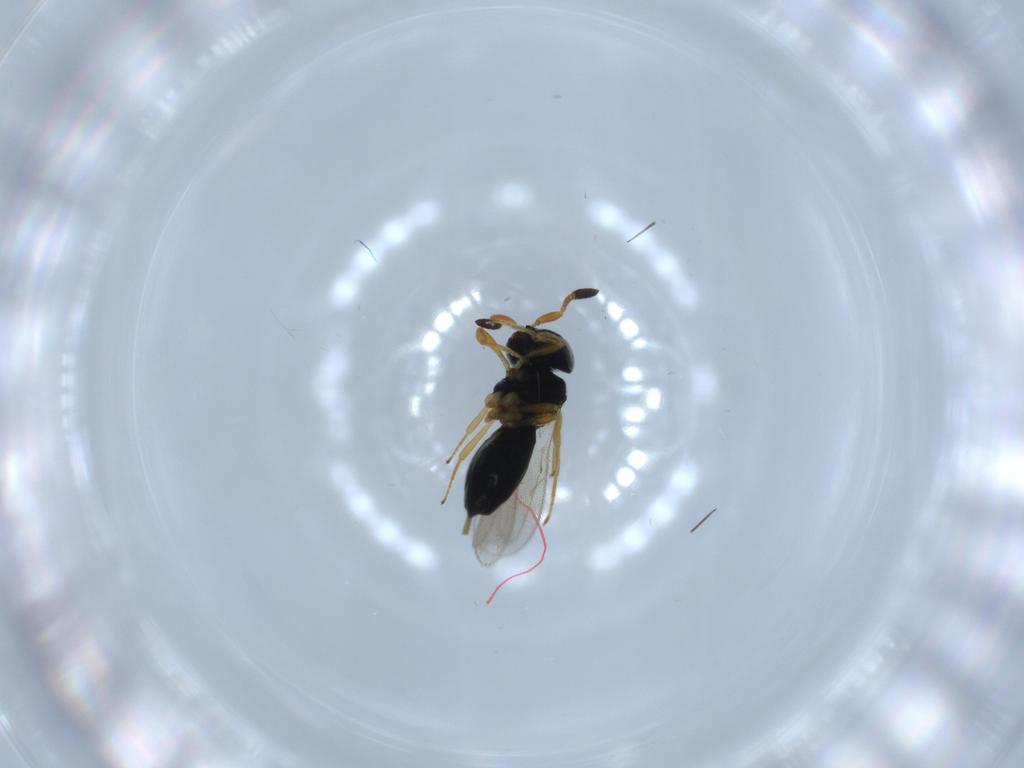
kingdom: Animalia
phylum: Arthropoda
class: Insecta
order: Hymenoptera
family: Scelionidae
